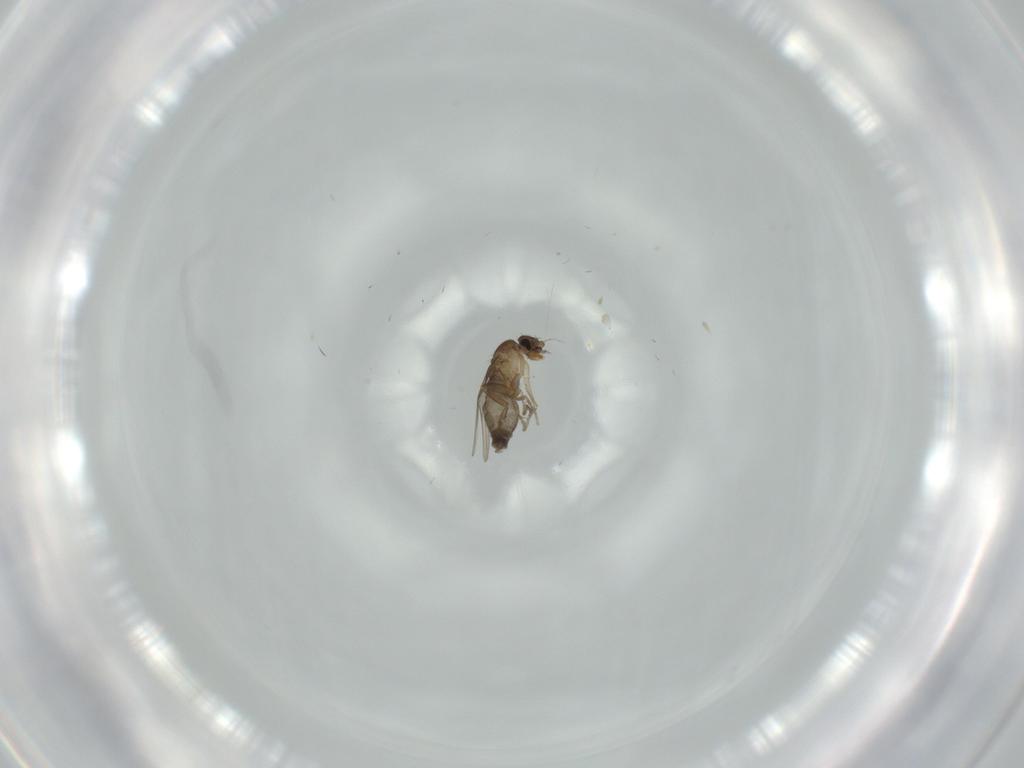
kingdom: Animalia
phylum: Arthropoda
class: Insecta
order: Diptera
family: Phoridae
